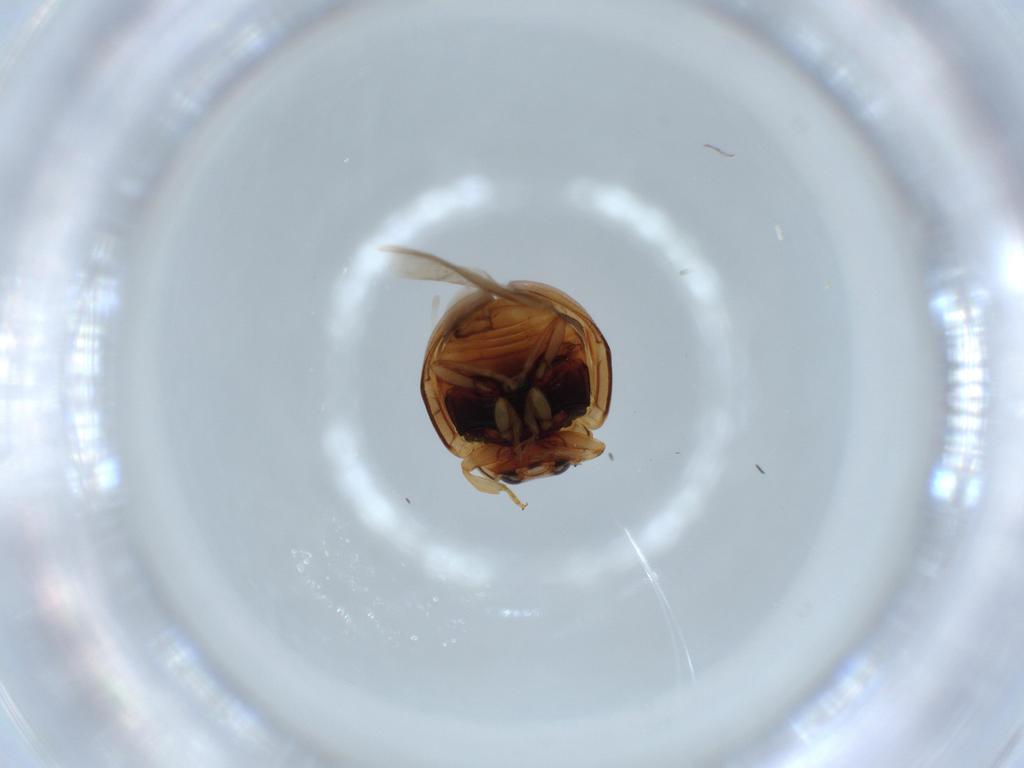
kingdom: Animalia
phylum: Arthropoda
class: Insecta
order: Coleoptera
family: Coccinellidae
